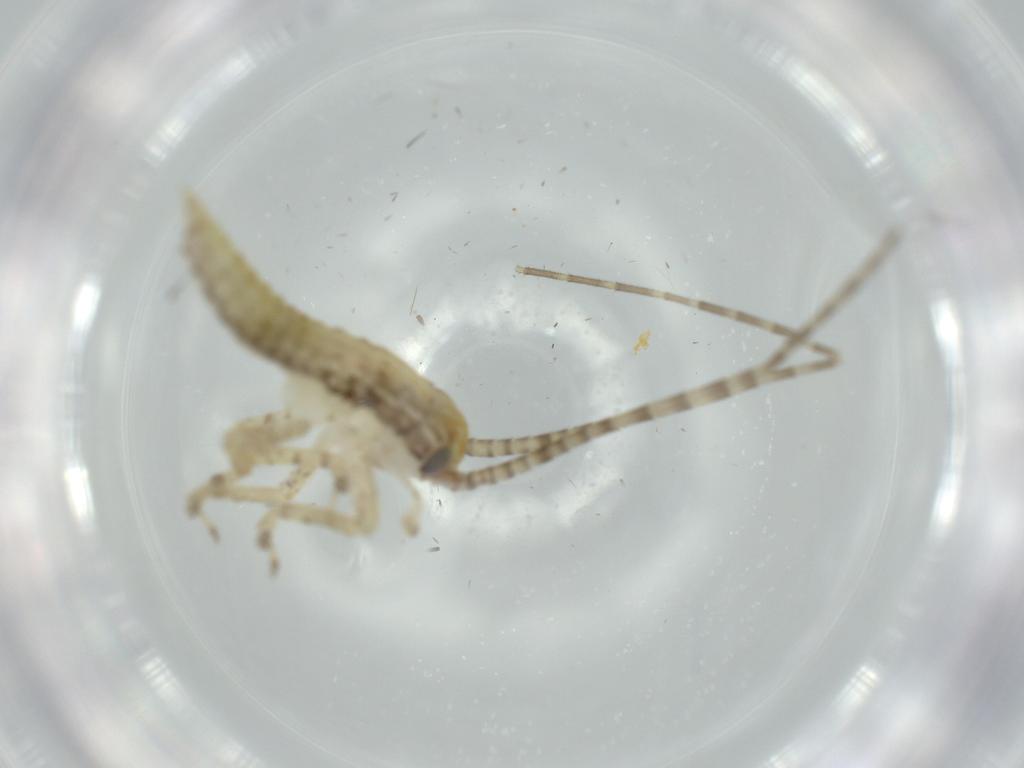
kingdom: Animalia
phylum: Arthropoda
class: Insecta
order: Orthoptera
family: Gryllidae
